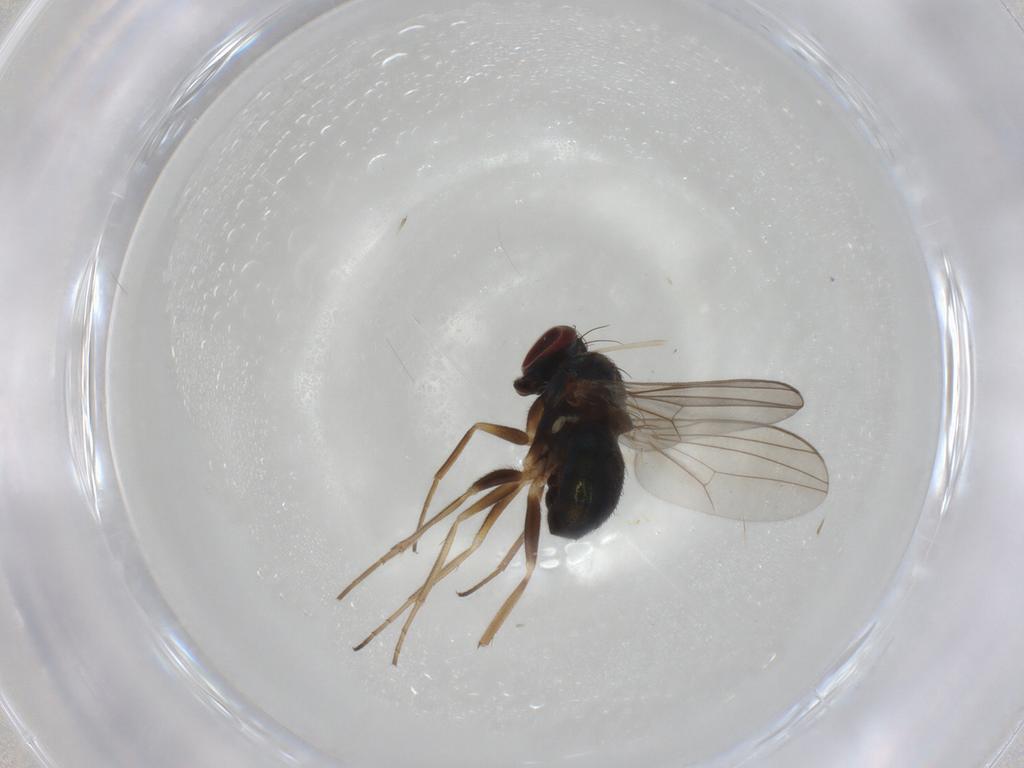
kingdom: Animalia
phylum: Arthropoda
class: Insecta
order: Diptera
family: Dolichopodidae
